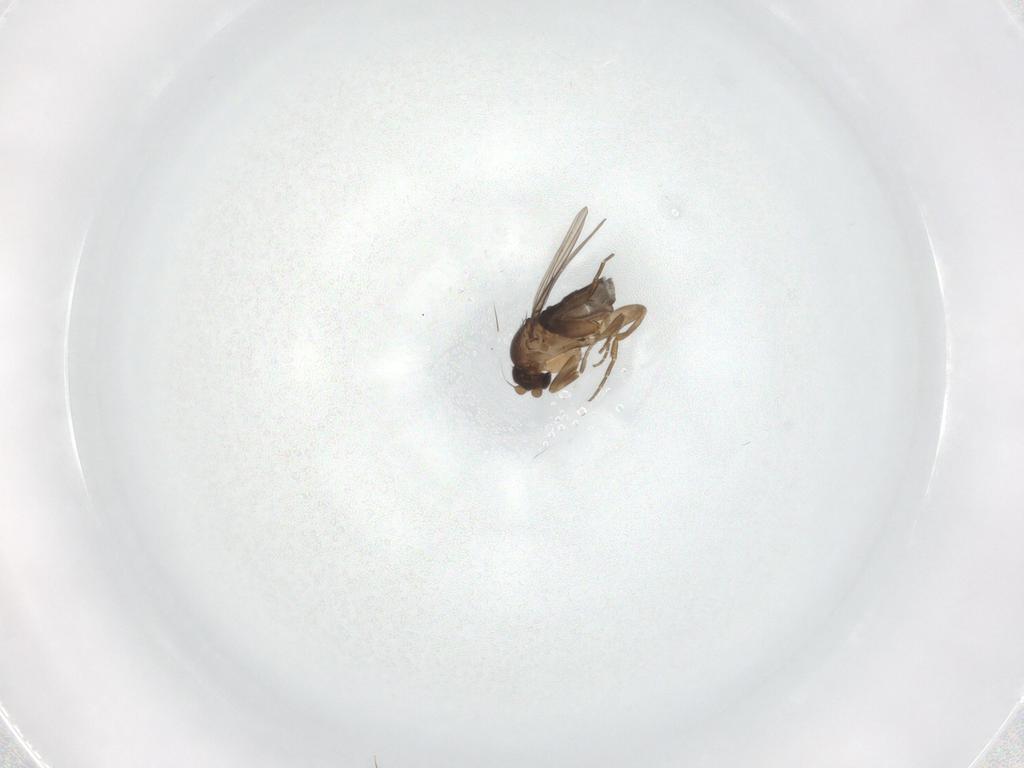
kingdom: Animalia
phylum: Arthropoda
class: Insecta
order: Diptera
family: Phoridae
